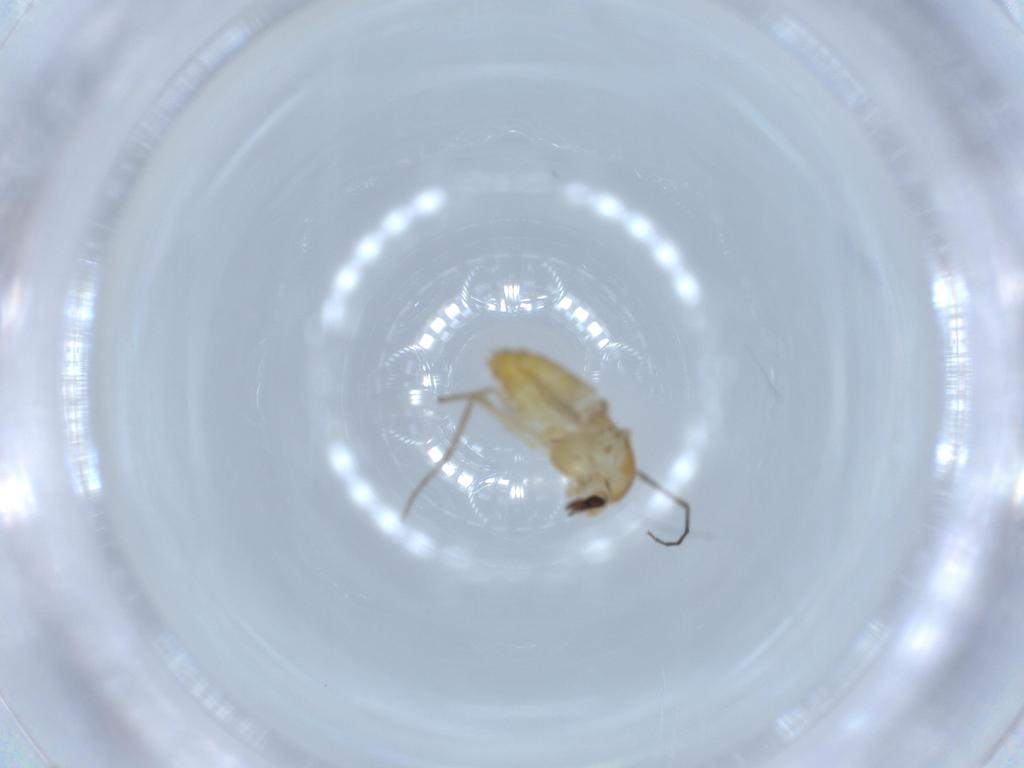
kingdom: Animalia
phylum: Arthropoda
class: Insecta
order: Diptera
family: Chironomidae
